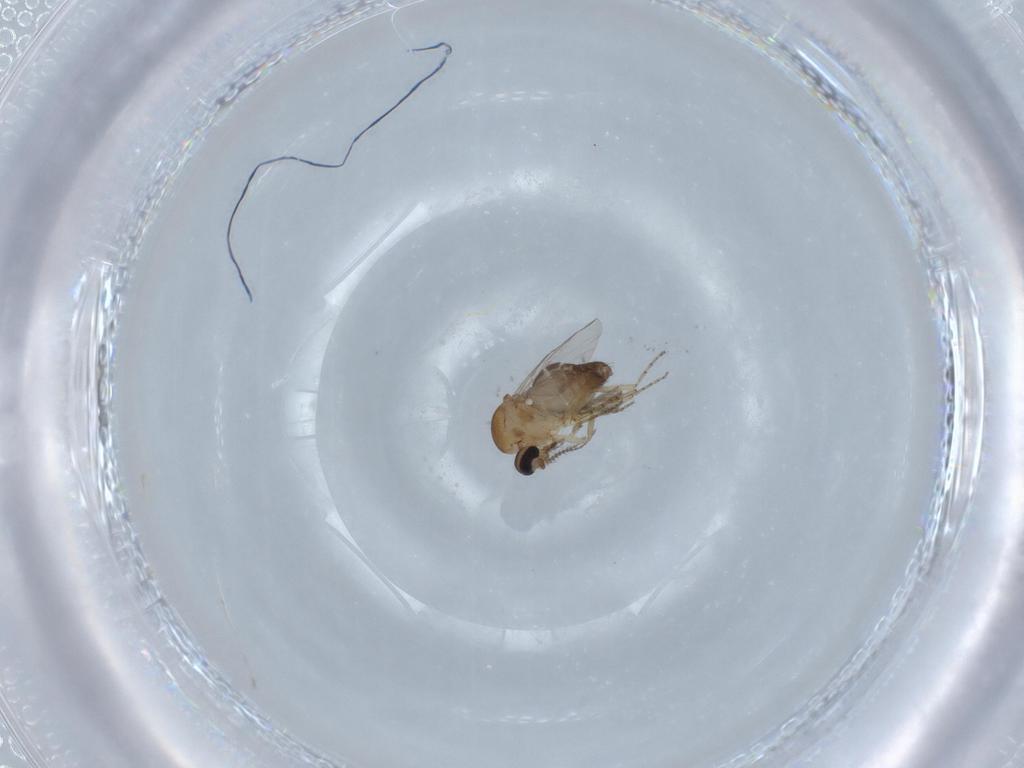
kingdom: Animalia
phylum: Arthropoda
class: Insecta
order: Diptera
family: Ceratopogonidae
